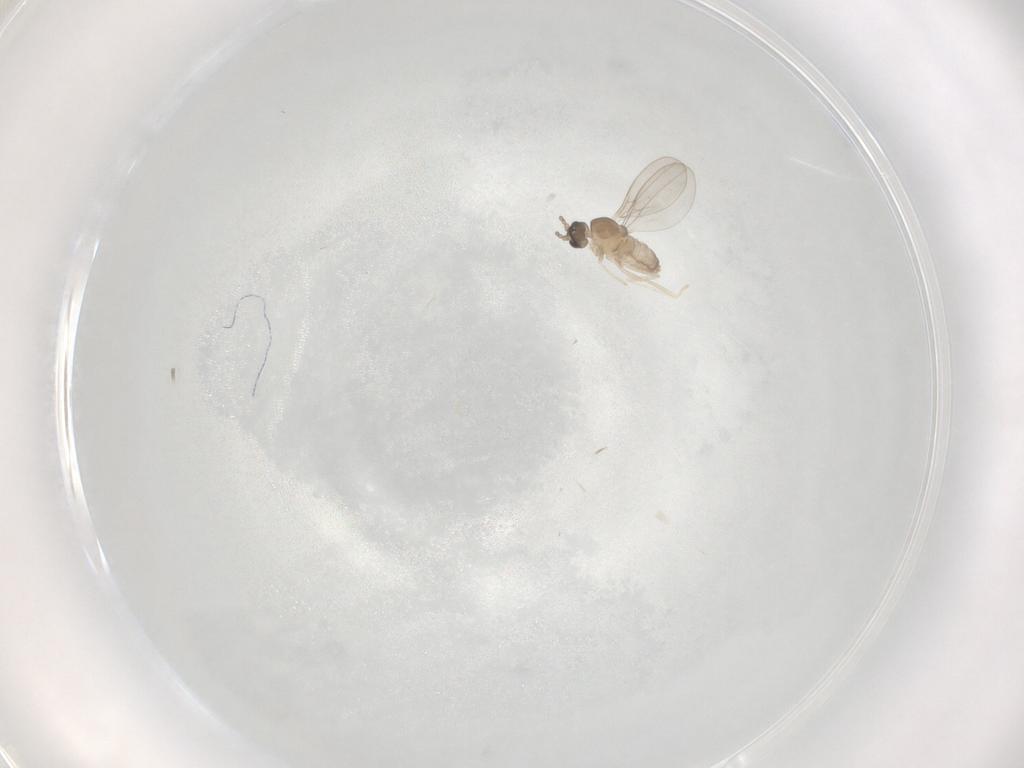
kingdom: Animalia
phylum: Arthropoda
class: Insecta
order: Diptera
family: Cecidomyiidae
